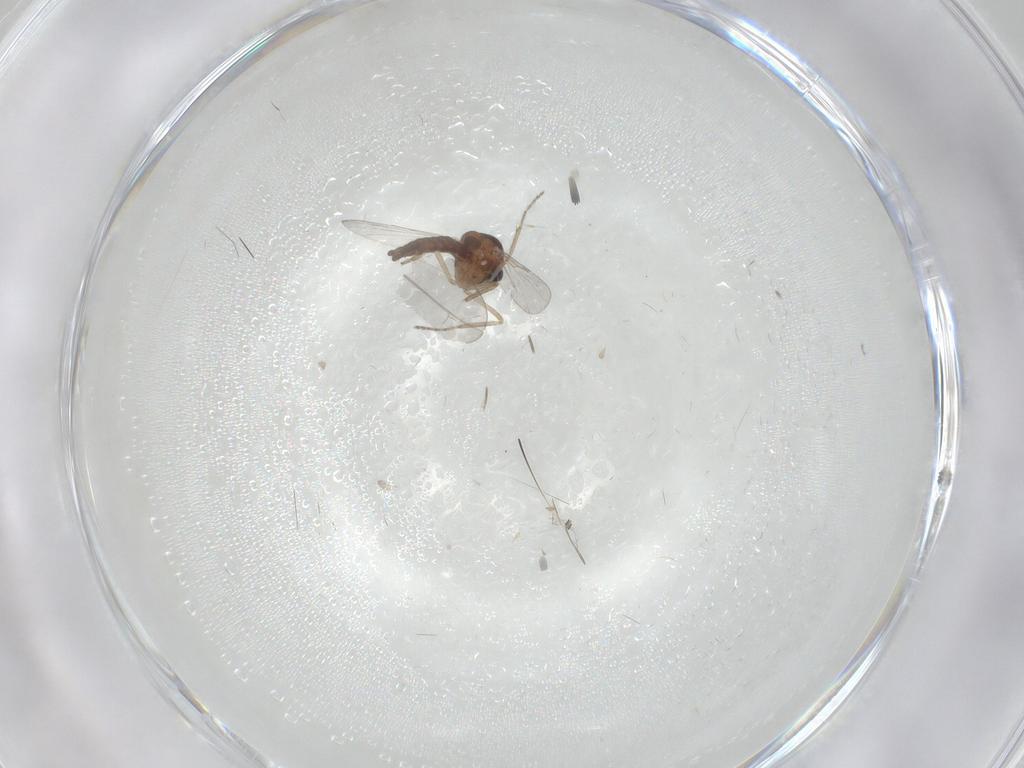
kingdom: Animalia
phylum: Arthropoda
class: Insecta
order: Diptera
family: Ceratopogonidae
